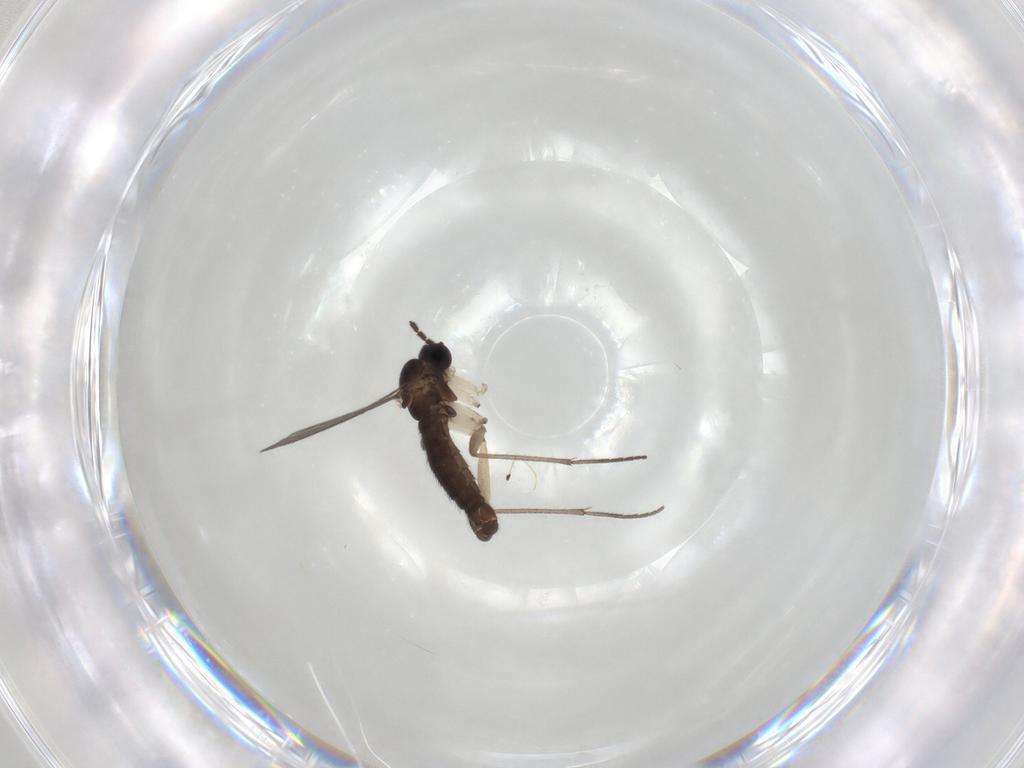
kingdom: Animalia
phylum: Arthropoda
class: Insecta
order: Diptera
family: Sciaridae
